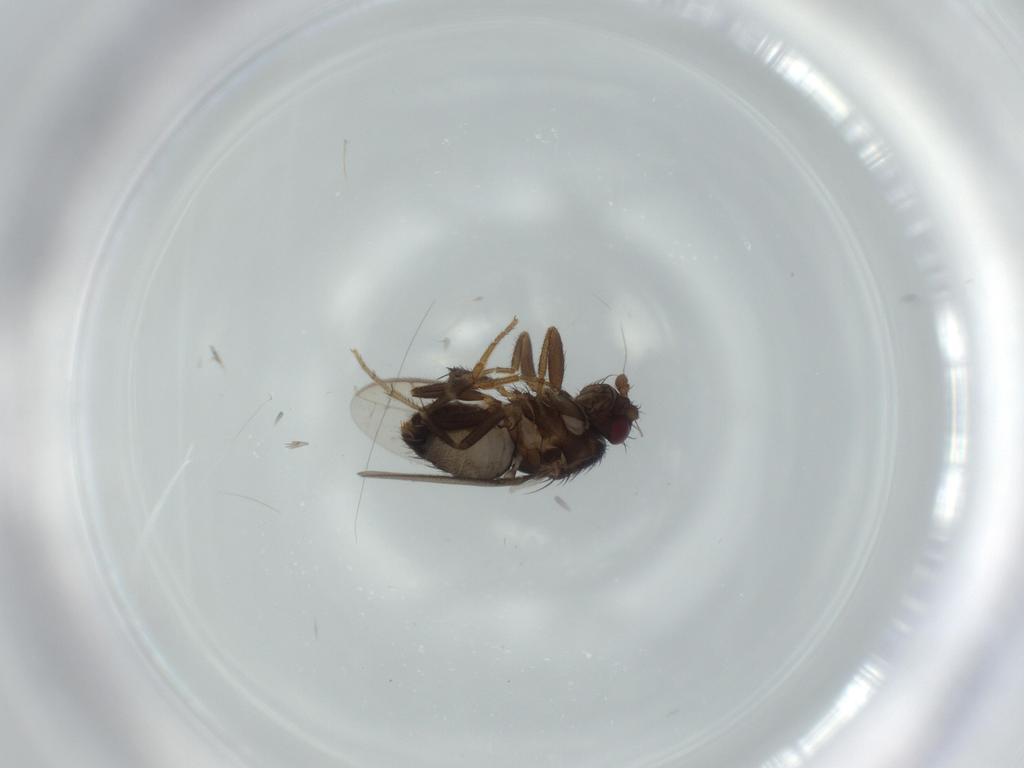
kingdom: Animalia
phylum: Arthropoda
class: Insecta
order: Diptera
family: Sphaeroceridae
